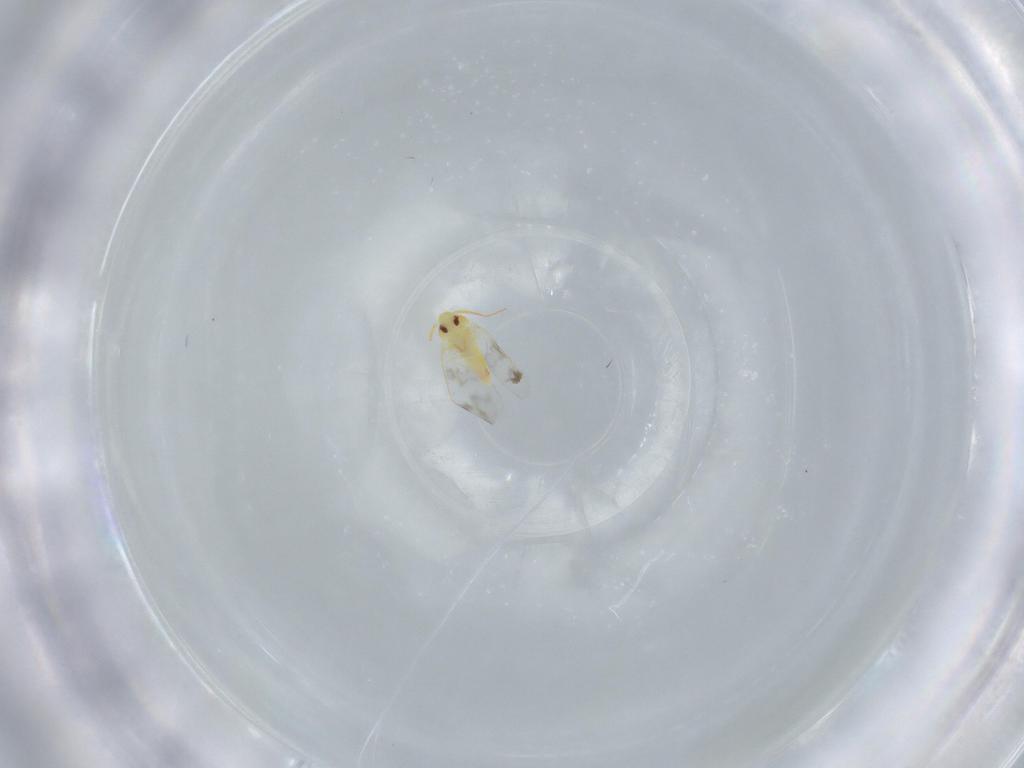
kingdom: Animalia
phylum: Arthropoda
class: Insecta
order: Hemiptera
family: Aleyrodidae
